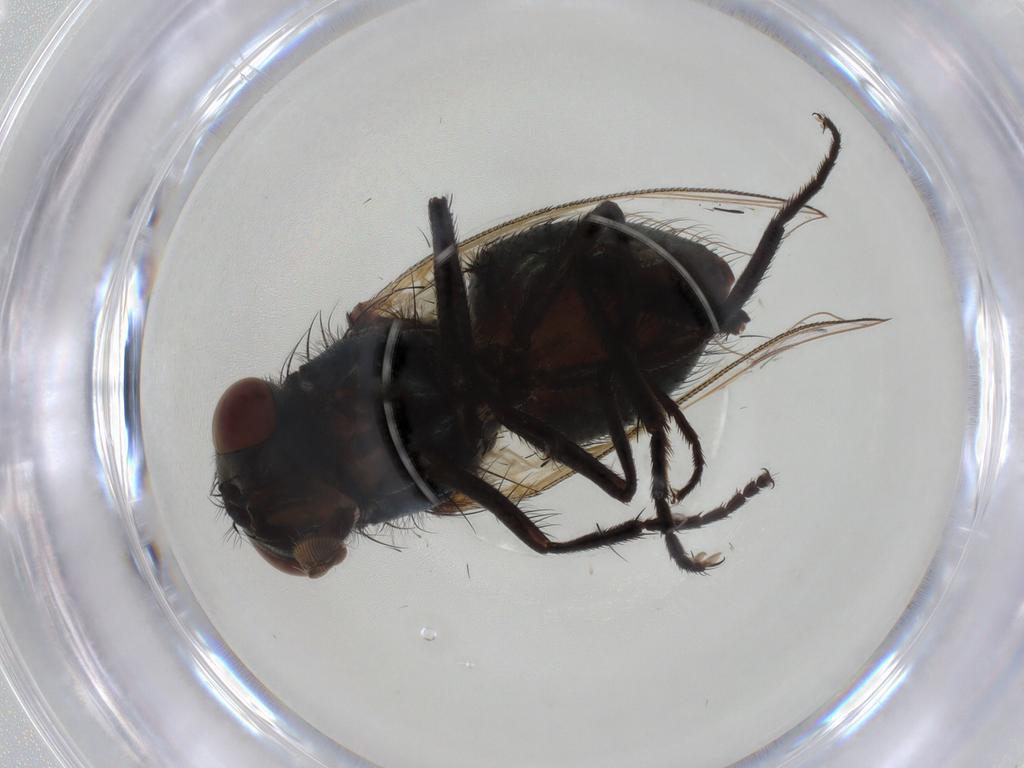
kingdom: Animalia
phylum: Arthropoda
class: Insecta
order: Diptera
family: Muscidae
